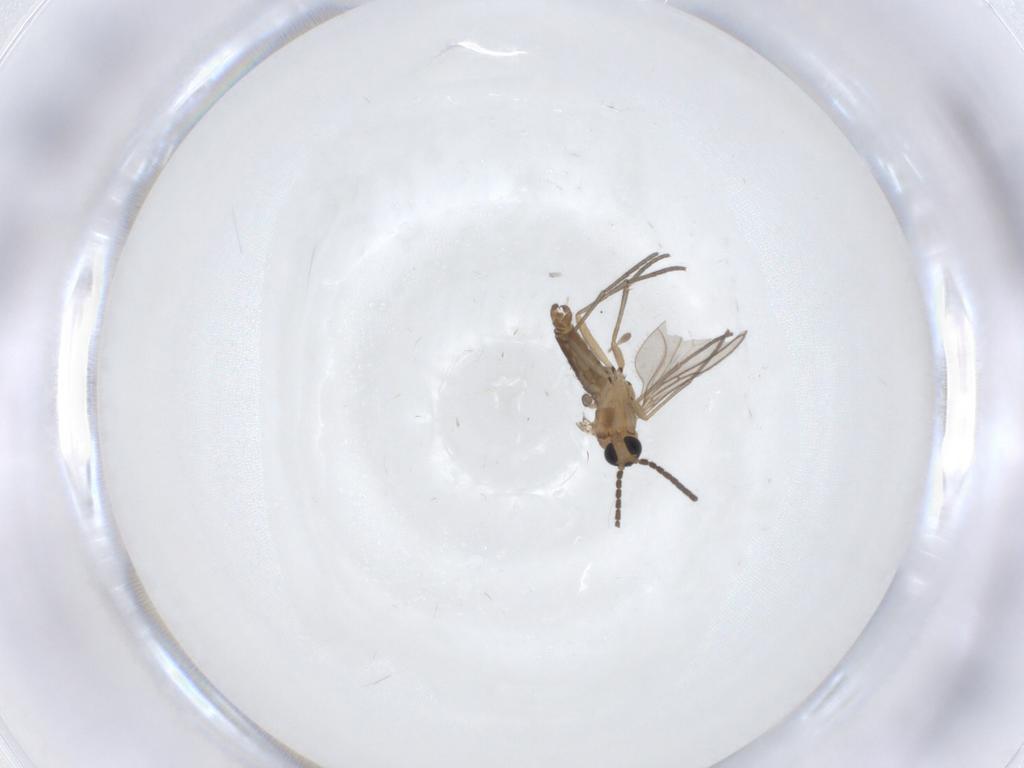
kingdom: Animalia
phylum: Arthropoda
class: Insecta
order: Diptera
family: Sciaridae
